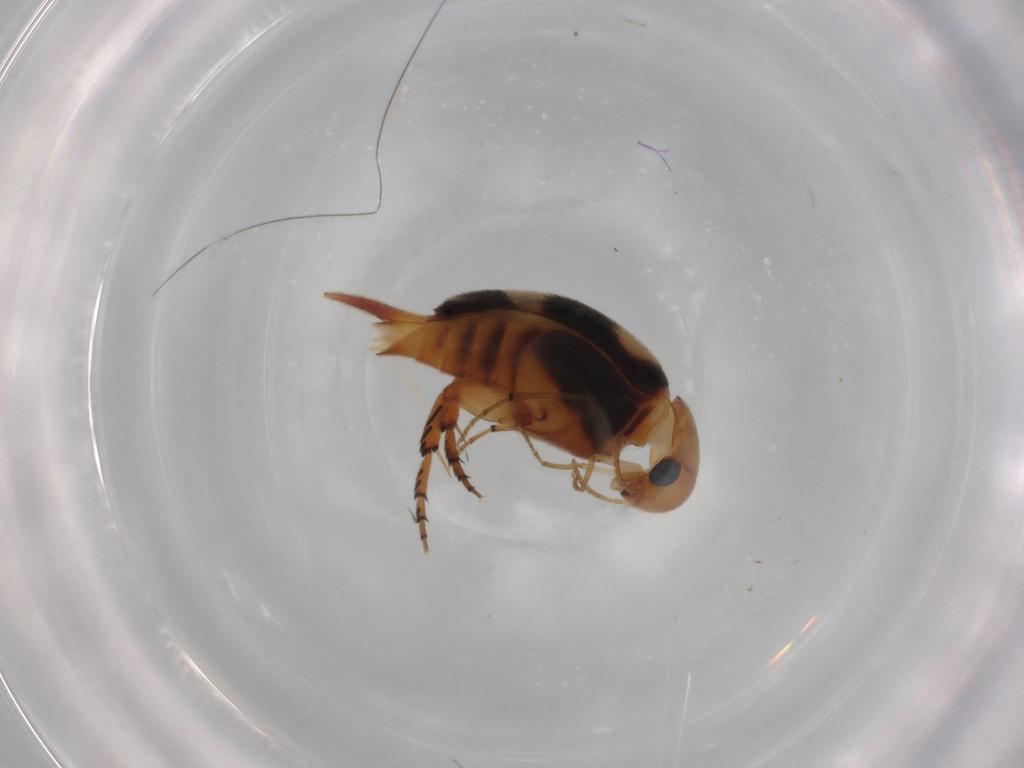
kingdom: Animalia
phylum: Arthropoda
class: Insecta
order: Coleoptera
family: Mordellidae
